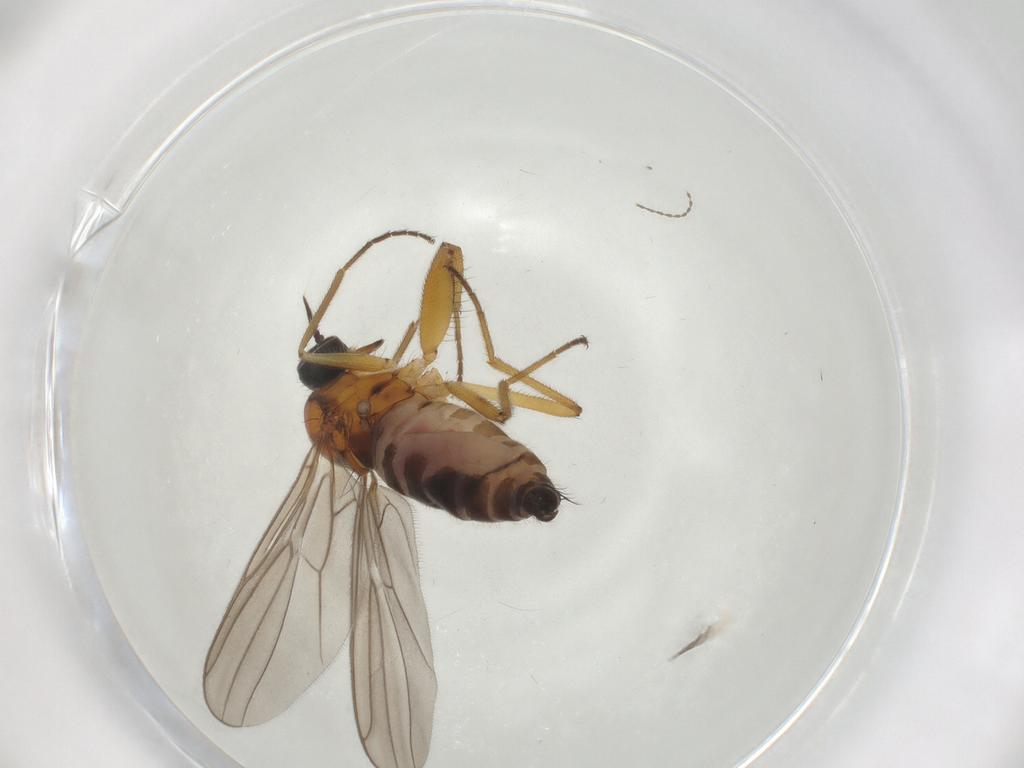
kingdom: Animalia
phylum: Arthropoda
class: Insecta
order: Diptera
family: Hybotidae
